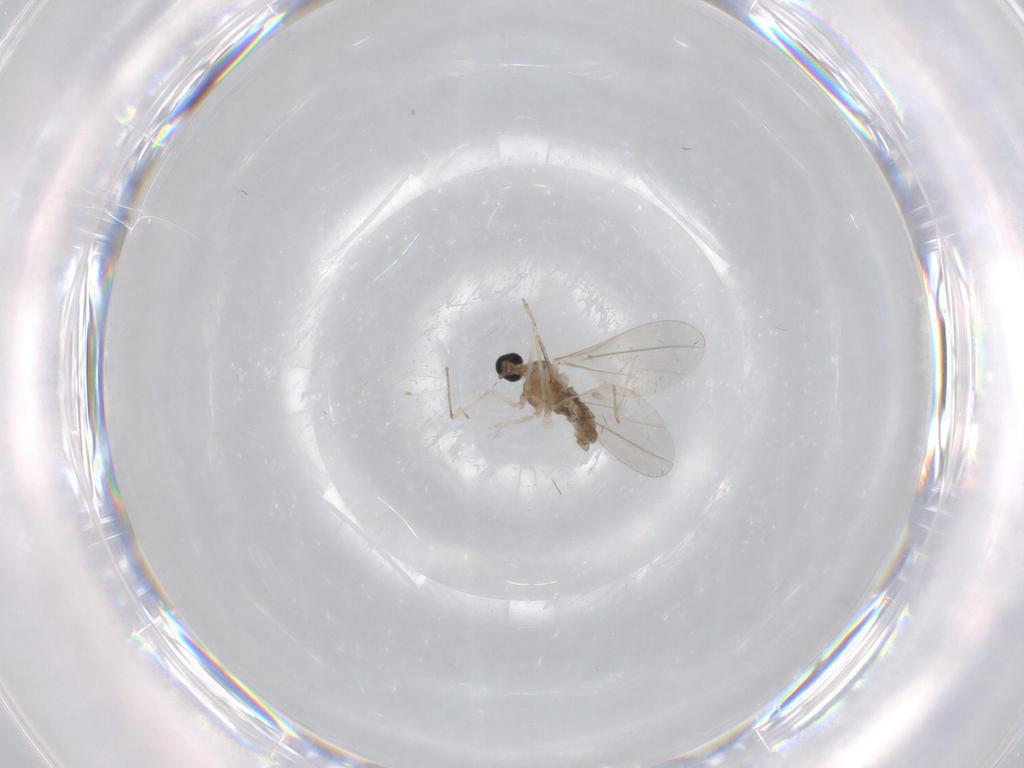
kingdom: Animalia
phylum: Arthropoda
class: Insecta
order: Diptera
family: Cecidomyiidae
